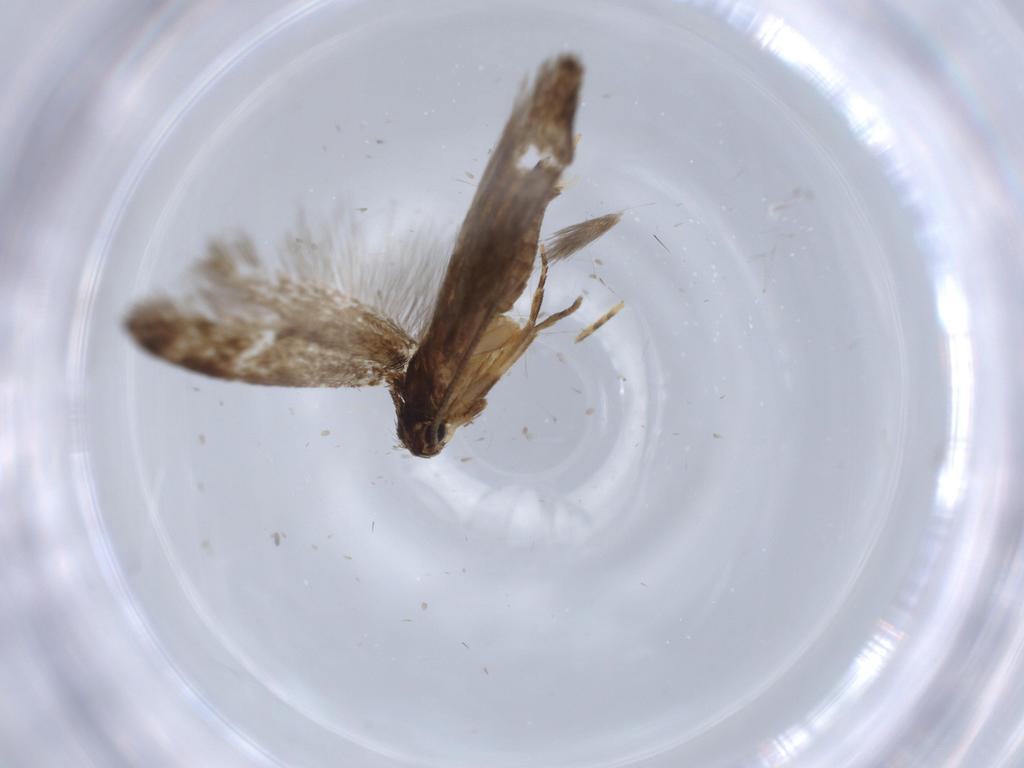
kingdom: Animalia
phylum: Arthropoda
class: Insecta
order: Lepidoptera
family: Tineidae
